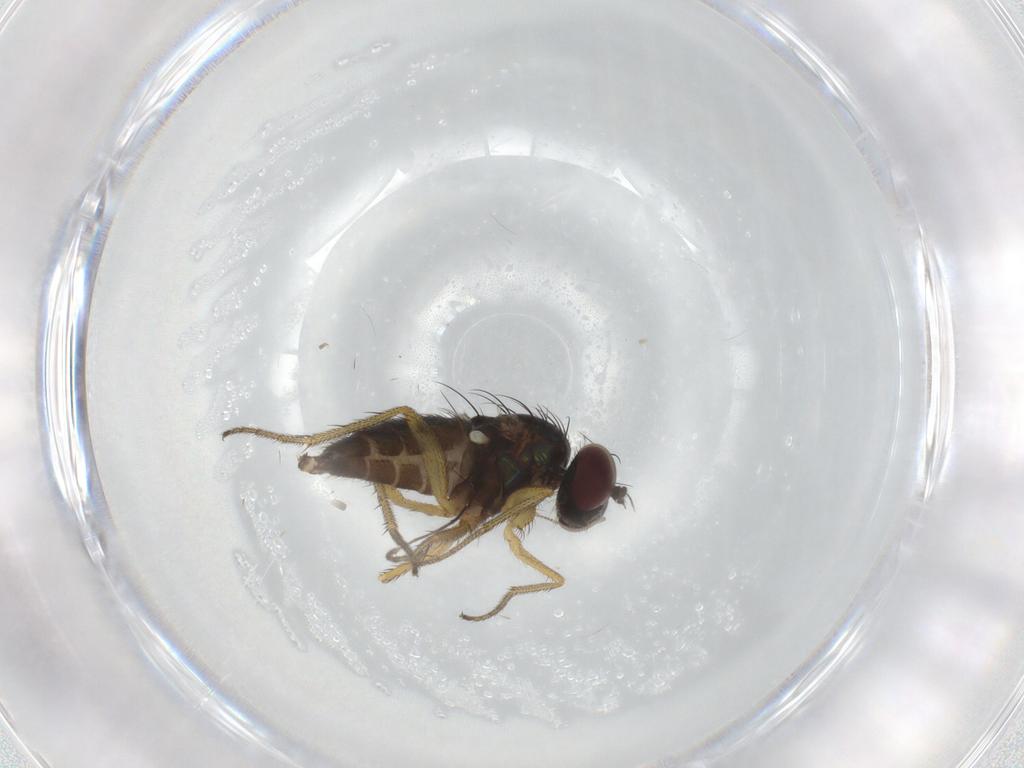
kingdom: Animalia
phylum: Arthropoda
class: Insecta
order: Diptera
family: Chironomidae
